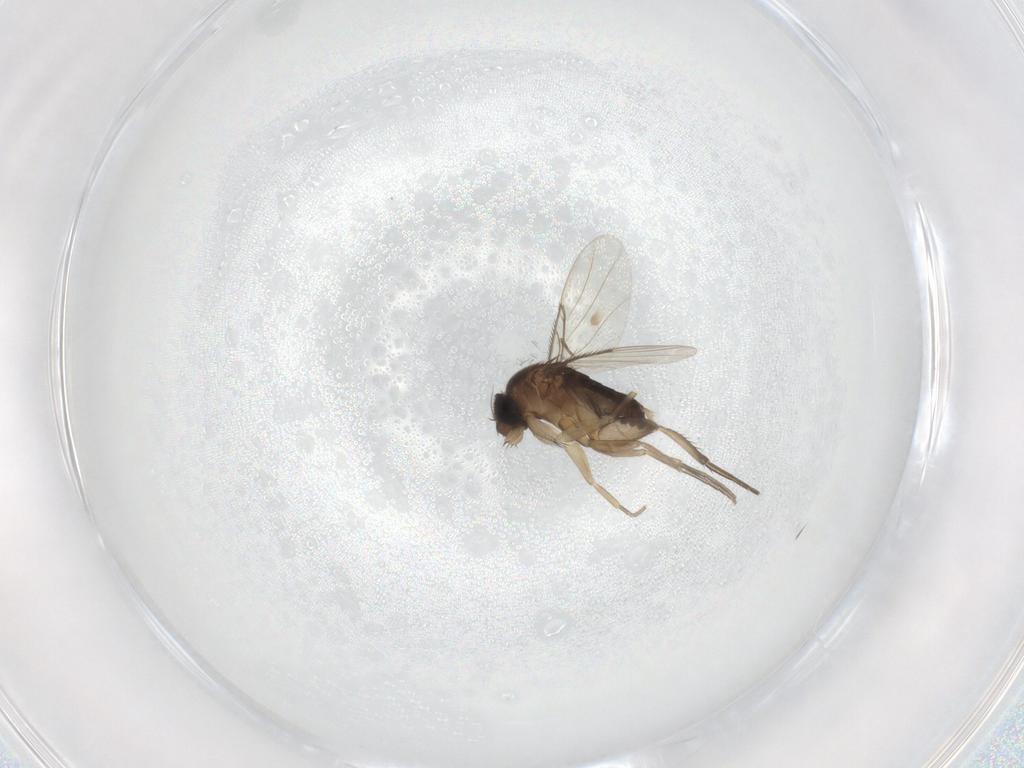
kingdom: Animalia
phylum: Arthropoda
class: Insecta
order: Diptera
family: Phoridae
